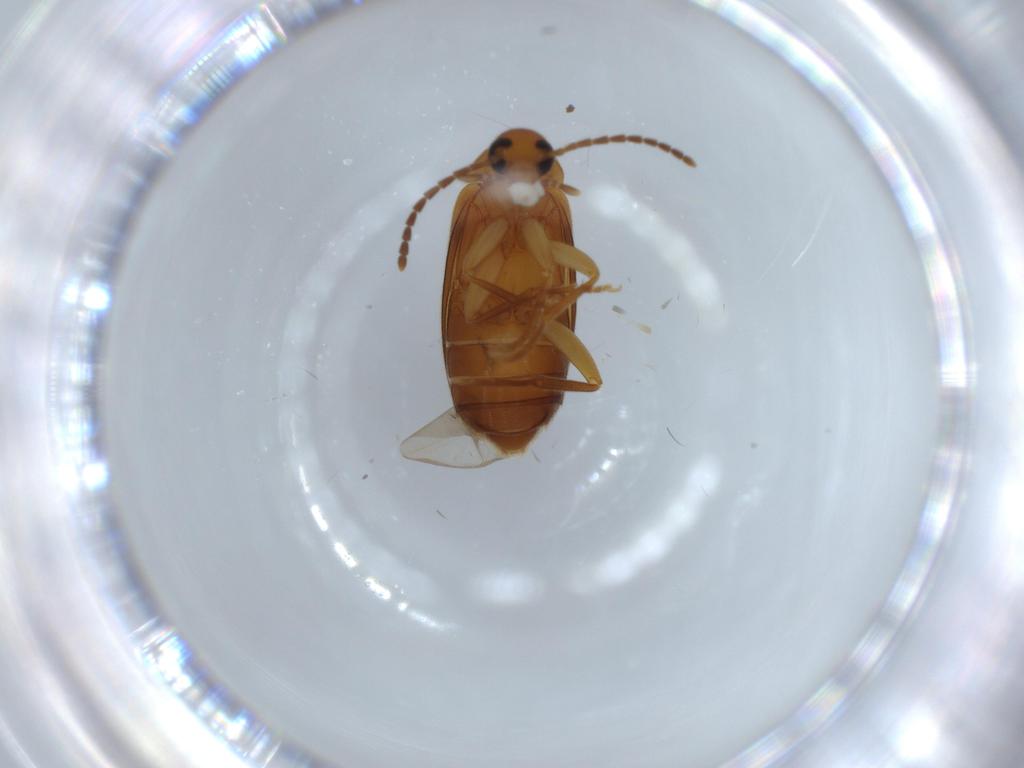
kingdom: Animalia
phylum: Arthropoda
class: Insecta
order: Coleoptera
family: Scraptiidae
